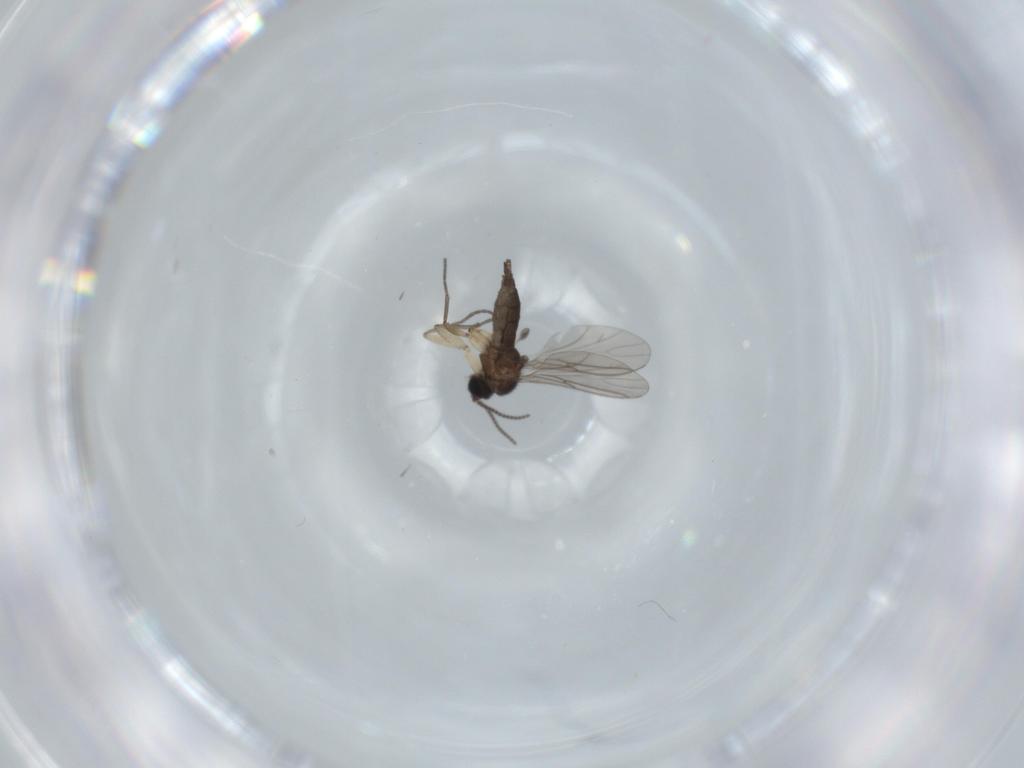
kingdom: Animalia
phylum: Arthropoda
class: Insecta
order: Diptera
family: Sciaridae
